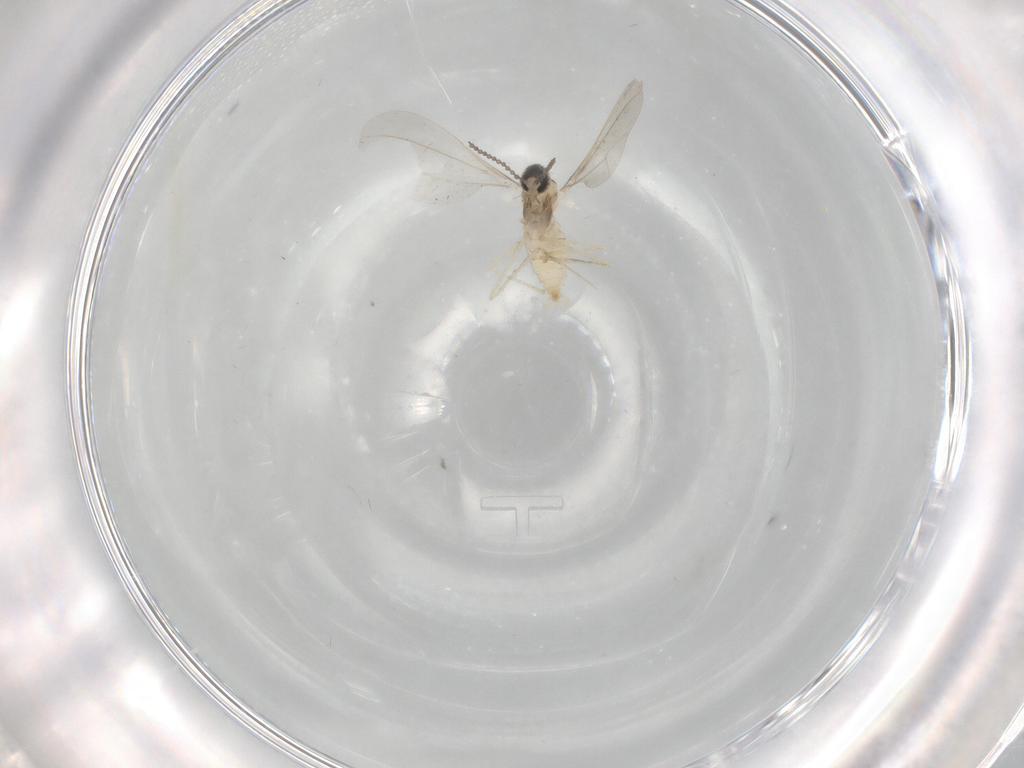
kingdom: Animalia
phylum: Arthropoda
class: Insecta
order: Diptera
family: Cecidomyiidae
